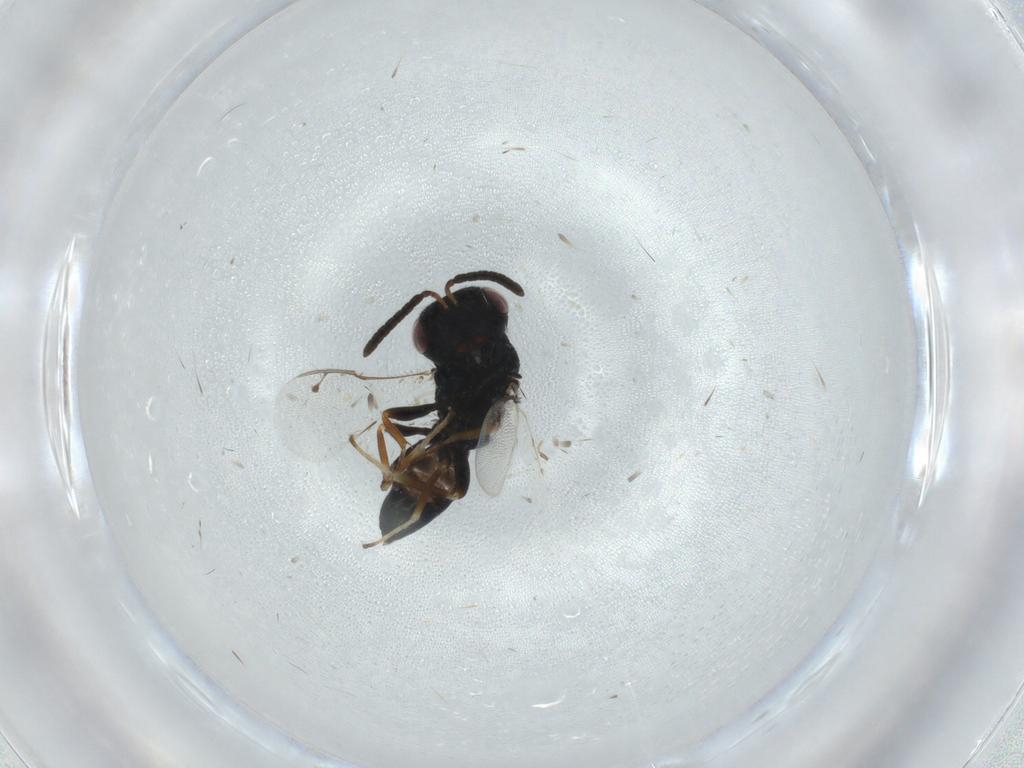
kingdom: Animalia
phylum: Arthropoda
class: Insecta
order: Hymenoptera
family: Pteromalidae
